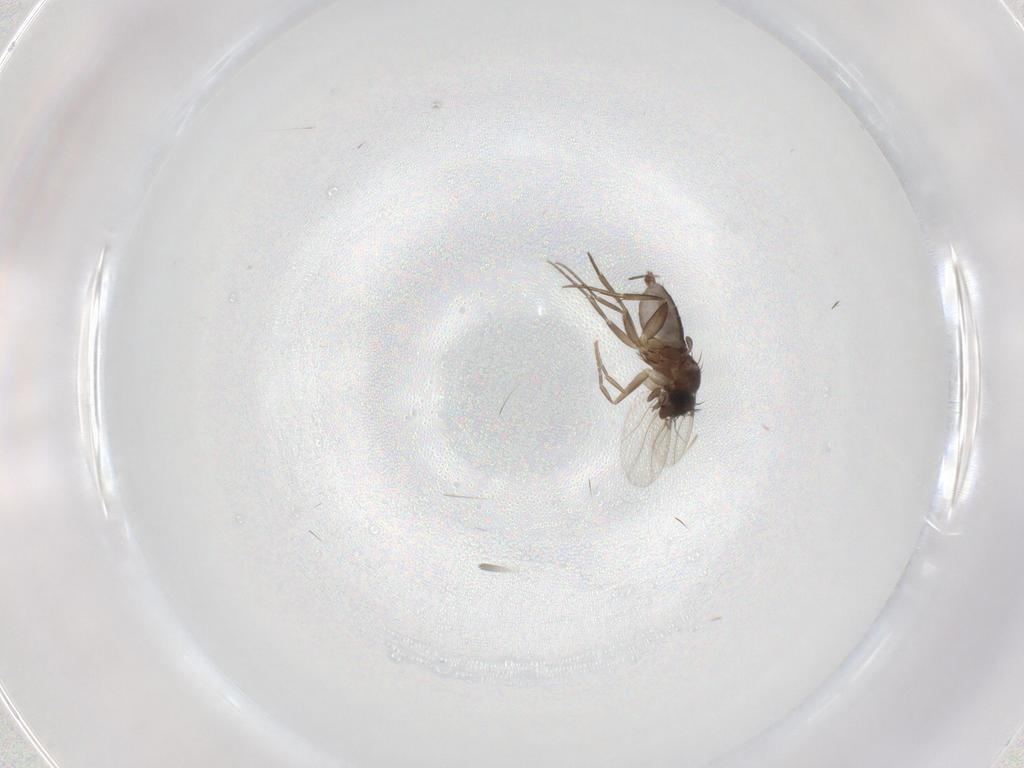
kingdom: Animalia
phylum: Arthropoda
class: Insecta
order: Diptera
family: Phoridae
